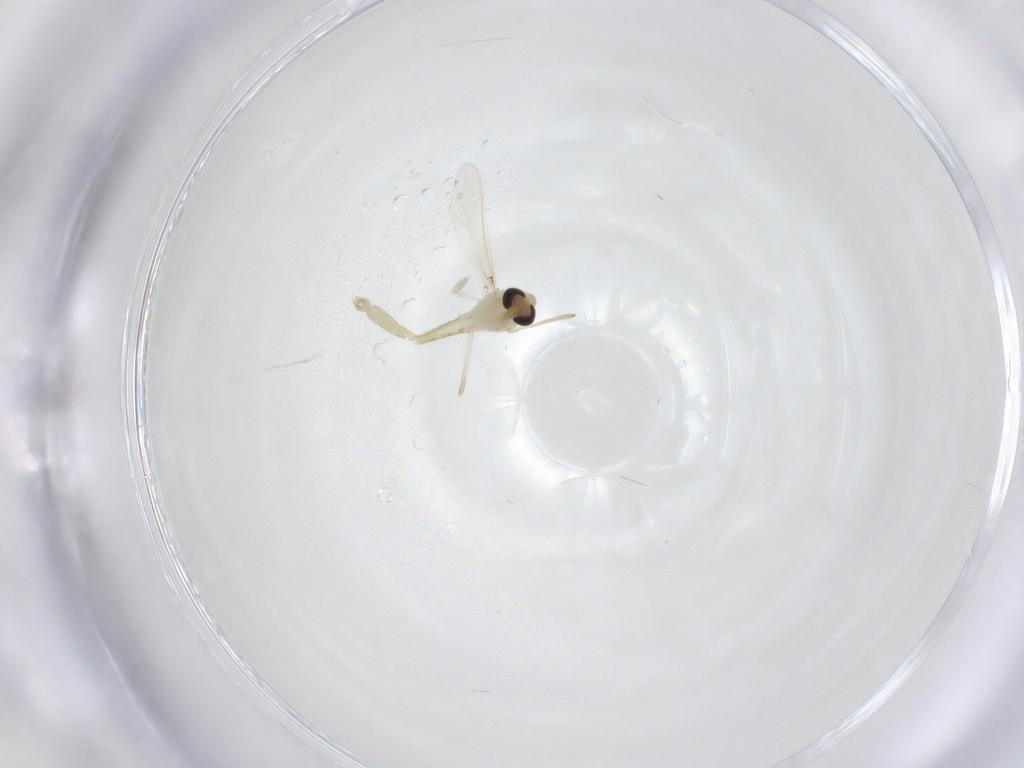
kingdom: Animalia
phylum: Arthropoda
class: Insecta
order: Diptera
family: Chironomidae
